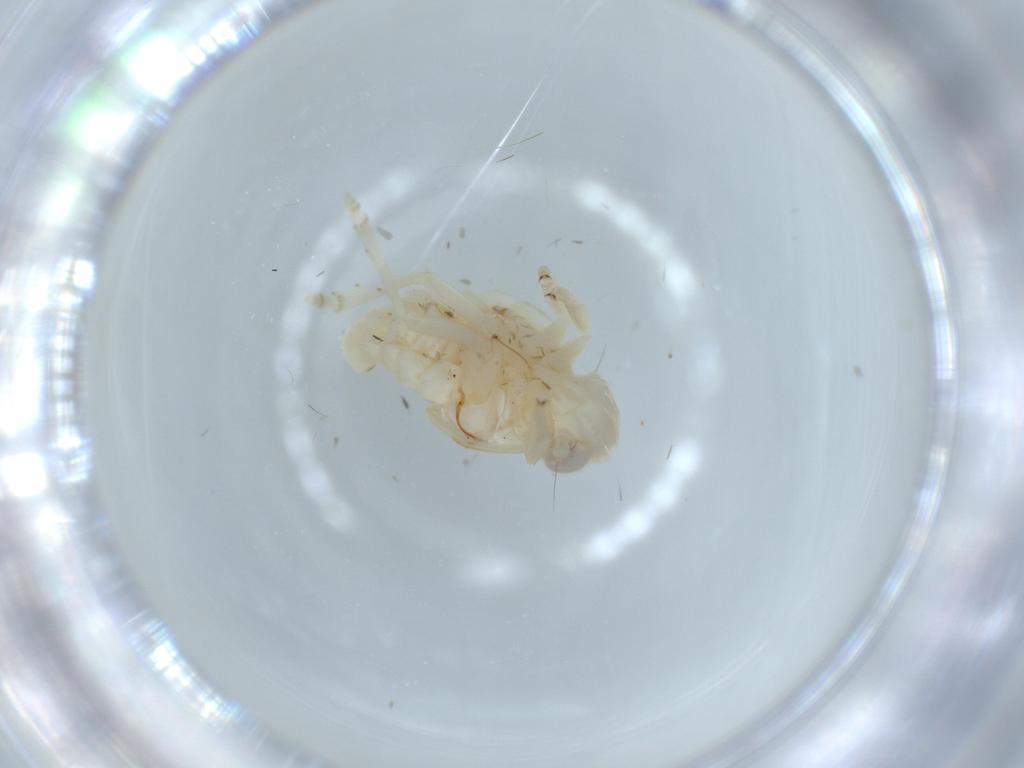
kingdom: Animalia
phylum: Arthropoda
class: Insecta
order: Hemiptera
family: Nogodinidae
